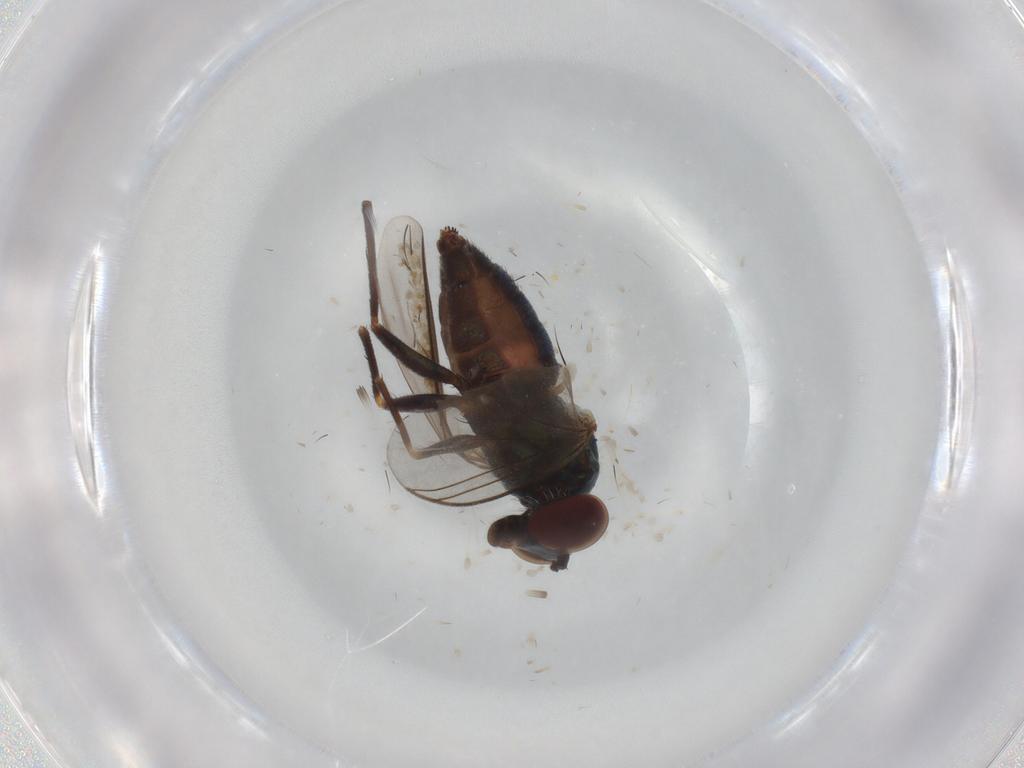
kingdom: Animalia
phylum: Arthropoda
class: Insecta
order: Diptera
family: Dolichopodidae
